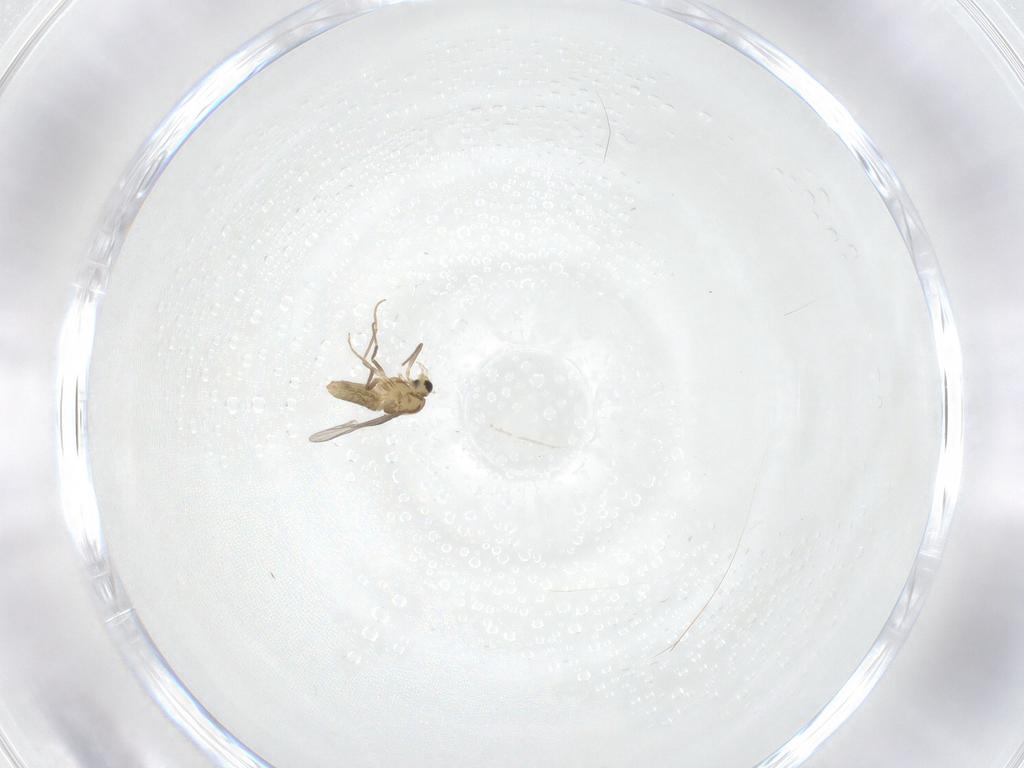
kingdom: Animalia
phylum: Arthropoda
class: Insecta
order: Diptera
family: Chironomidae
